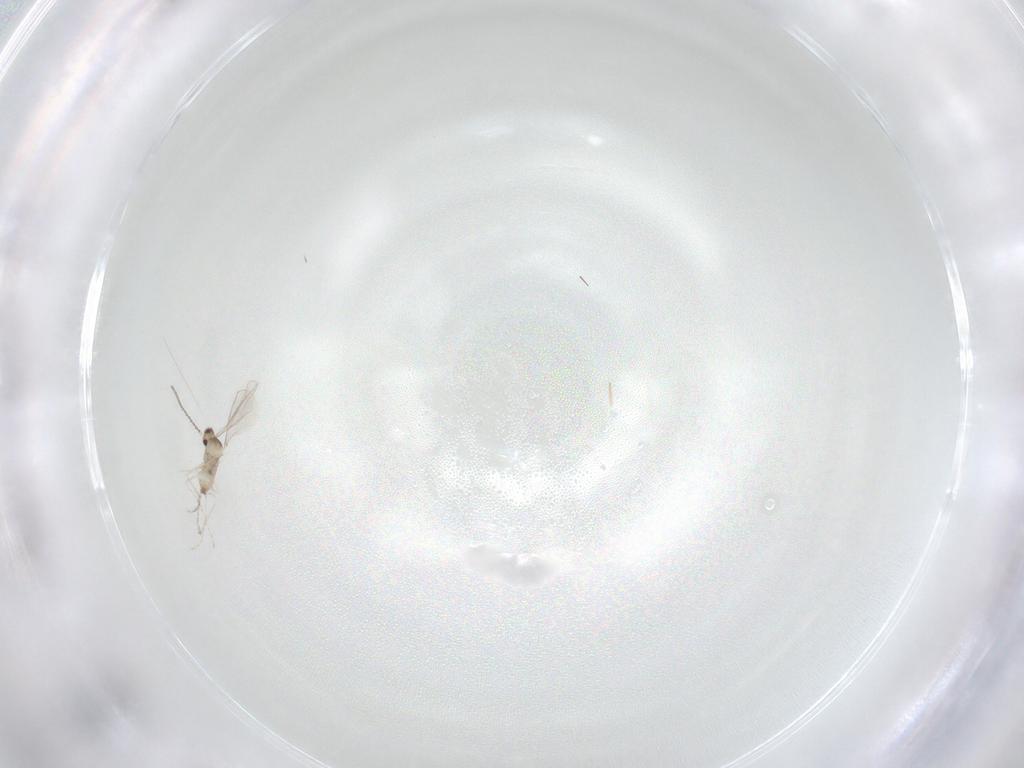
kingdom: Animalia
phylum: Arthropoda
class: Insecta
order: Diptera
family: Cecidomyiidae
